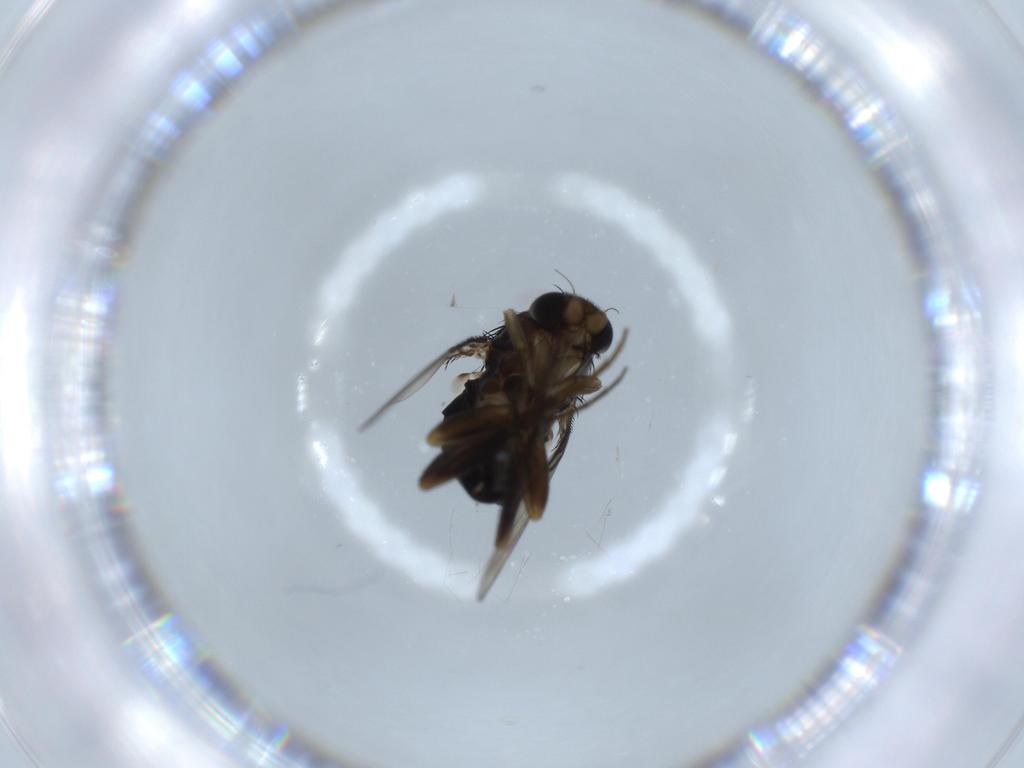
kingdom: Animalia
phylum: Arthropoda
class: Insecta
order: Diptera
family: Phoridae
